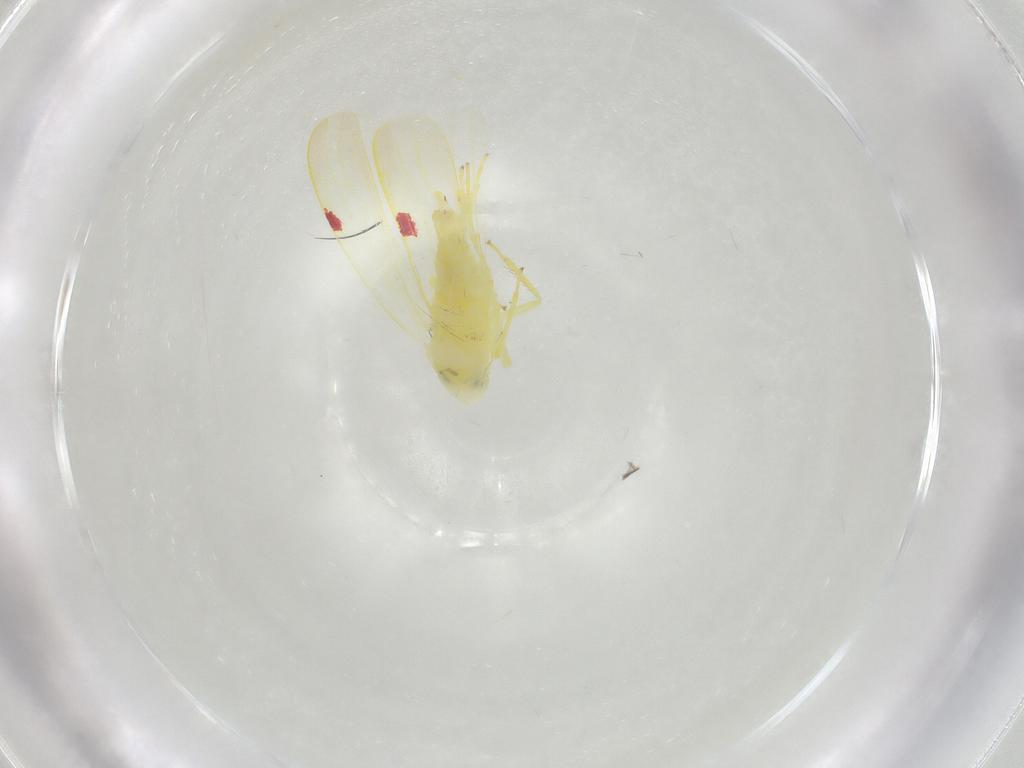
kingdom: Animalia
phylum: Arthropoda
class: Insecta
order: Hemiptera
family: Cicadellidae
